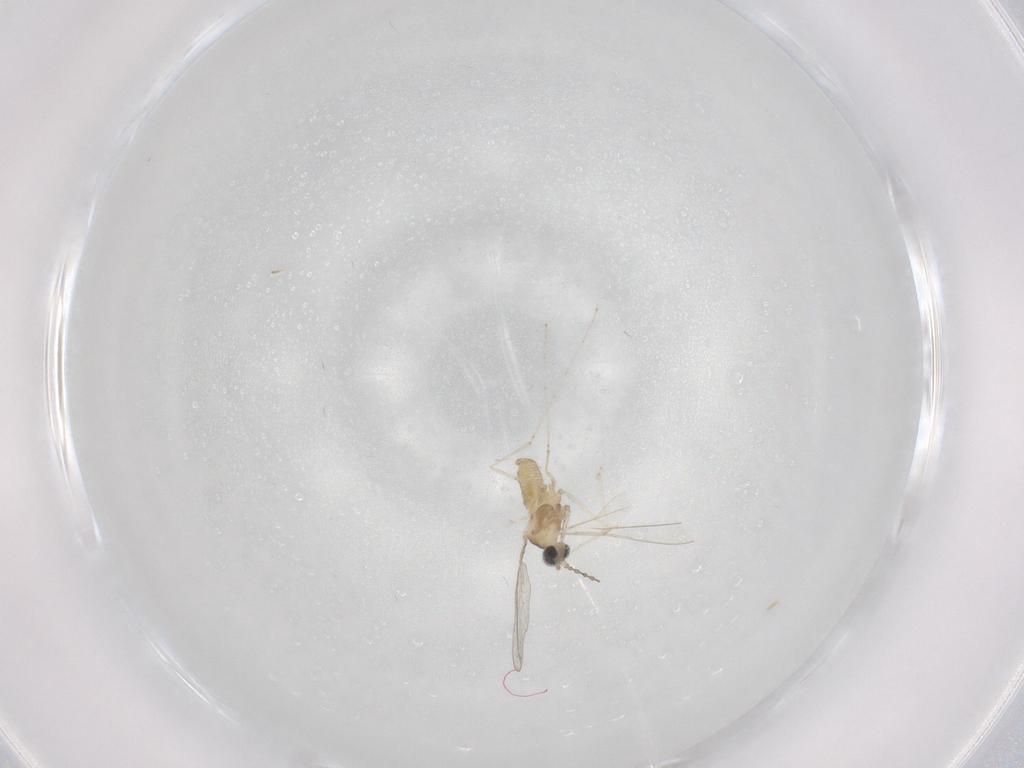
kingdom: Animalia
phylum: Arthropoda
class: Insecta
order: Diptera
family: Cecidomyiidae
